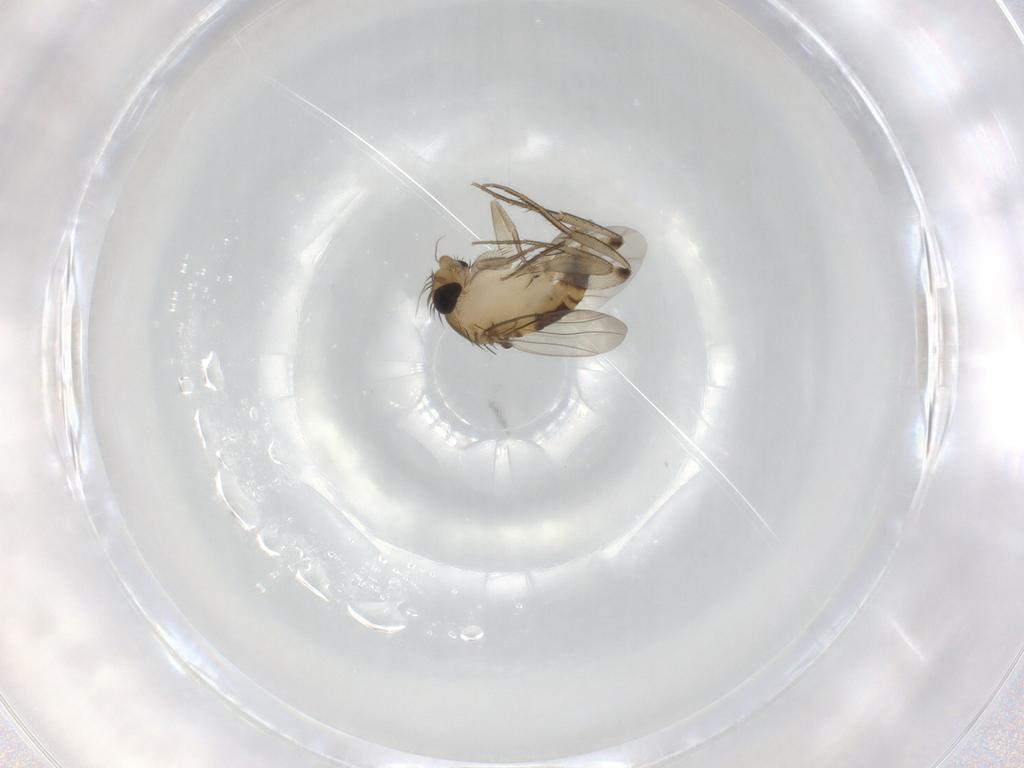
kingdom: Animalia
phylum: Arthropoda
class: Insecta
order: Diptera
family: Phoridae
